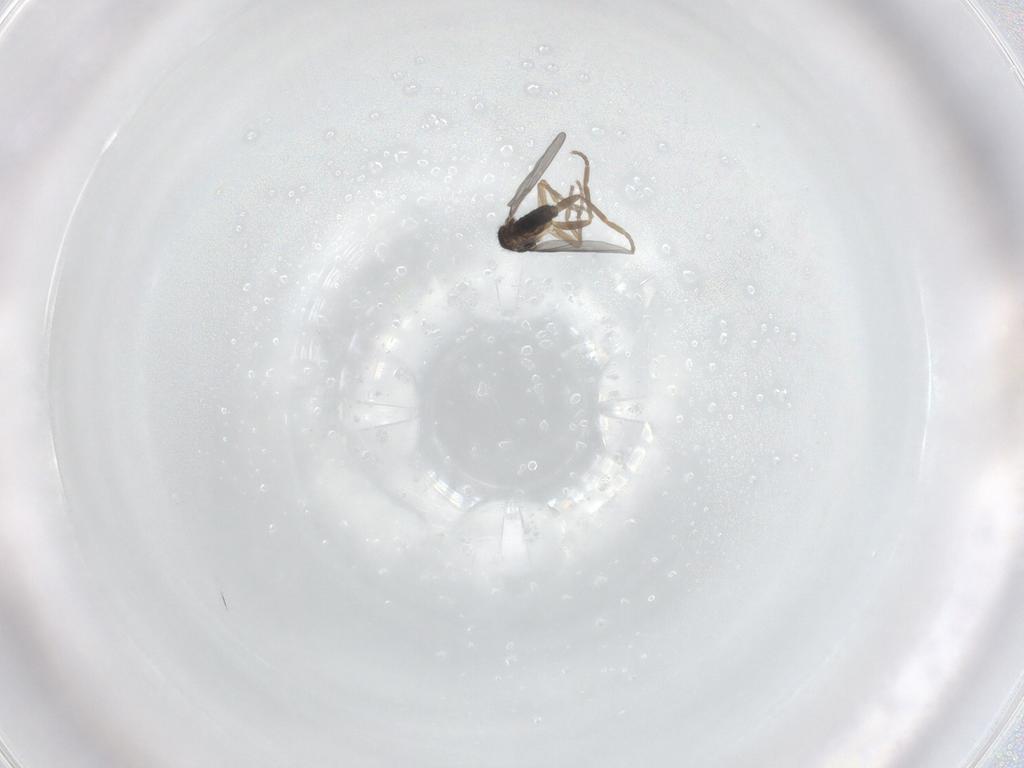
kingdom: Animalia
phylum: Arthropoda
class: Insecta
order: Diptera
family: Phoridae
